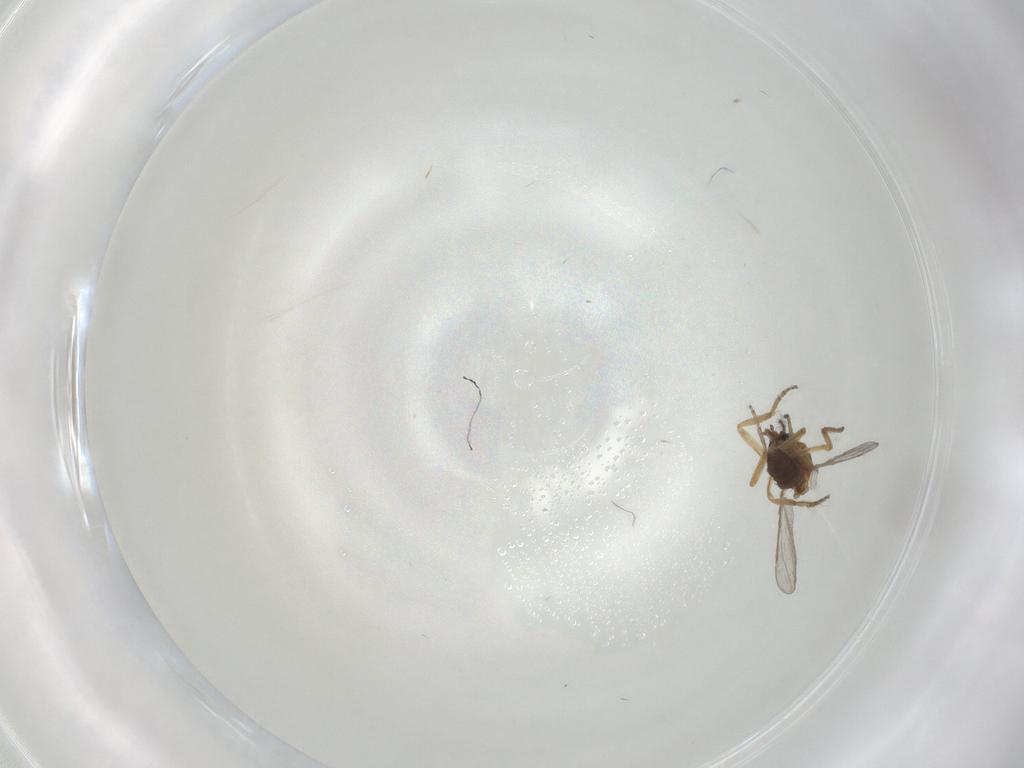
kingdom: Animalia
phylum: Arthropoda
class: Insecta
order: Diptera
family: Ceratopogonidae
